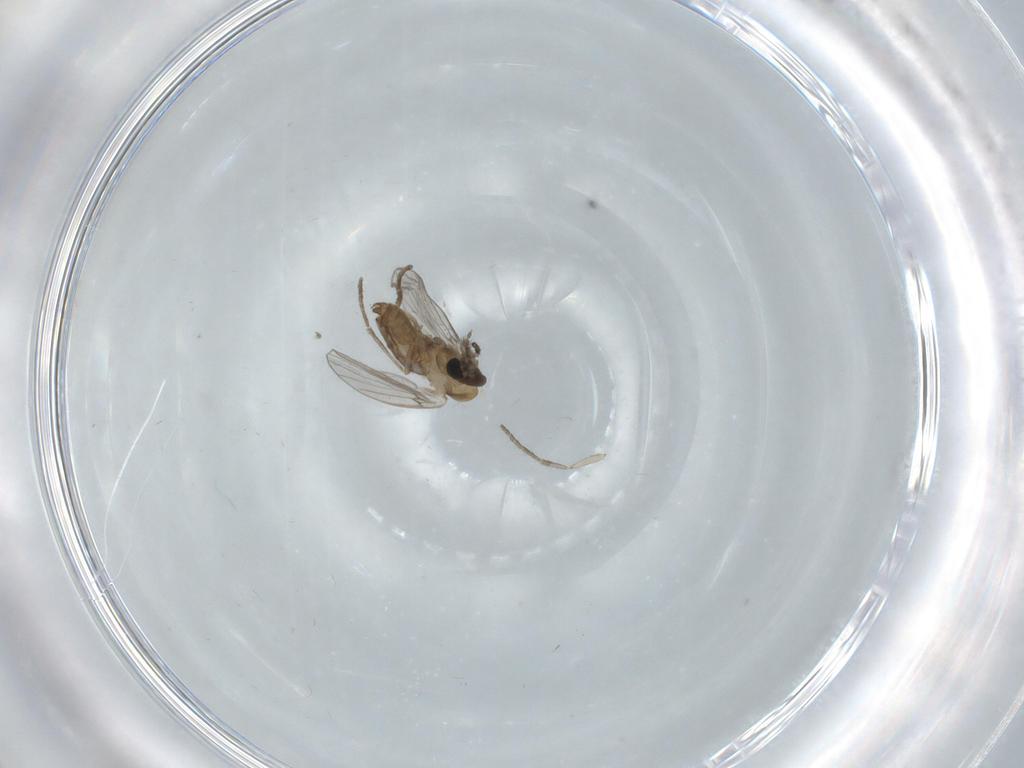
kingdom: Animalia
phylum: Arthropoda
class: Insecta
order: Diptera
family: Psychodidae
